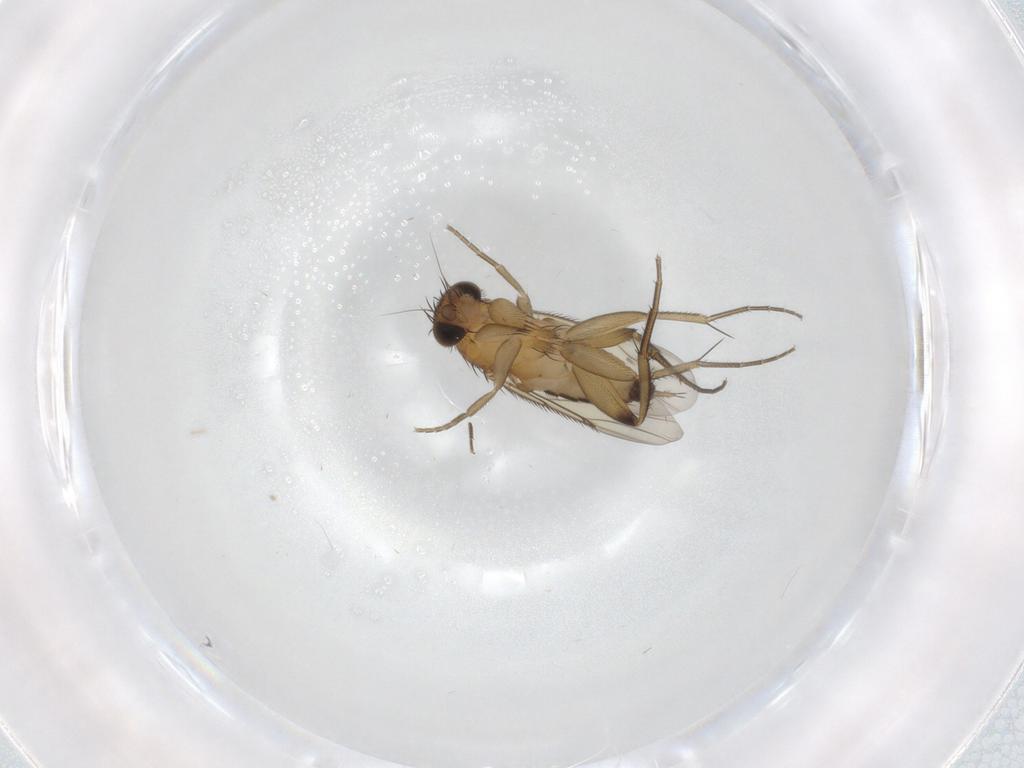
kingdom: Animalia
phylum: Arthropoda
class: Insecta
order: Diptera
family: Phoridae
